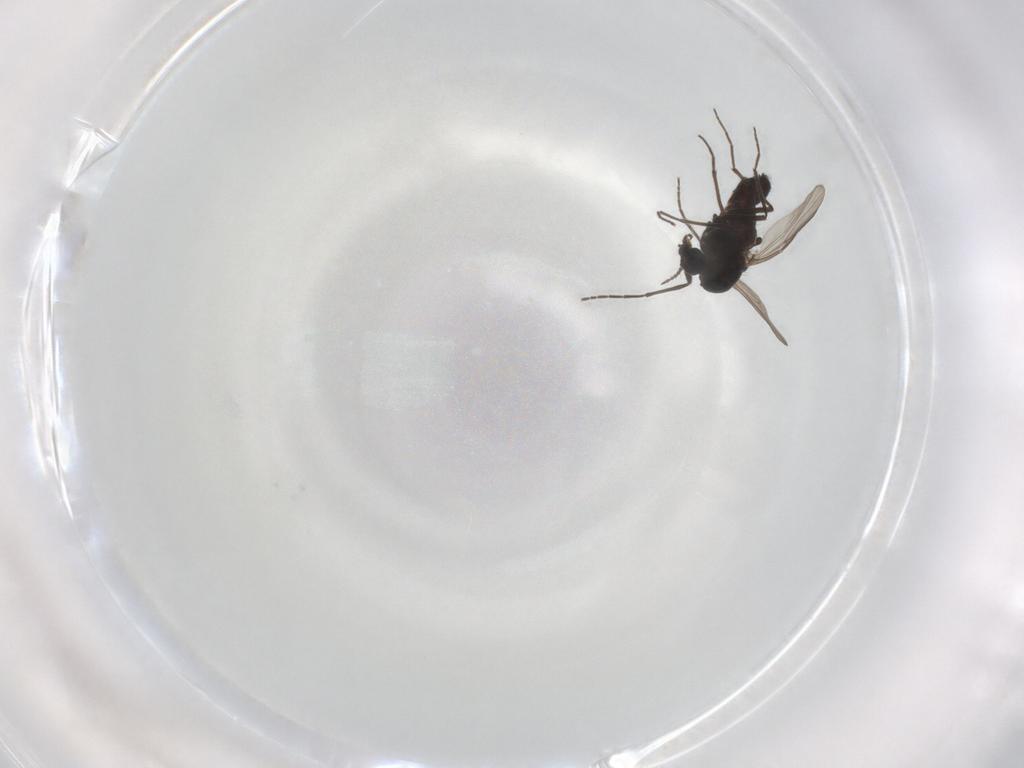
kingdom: Animalia
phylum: Arthropoda
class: Insecta
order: Diptera
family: Chironomidae
